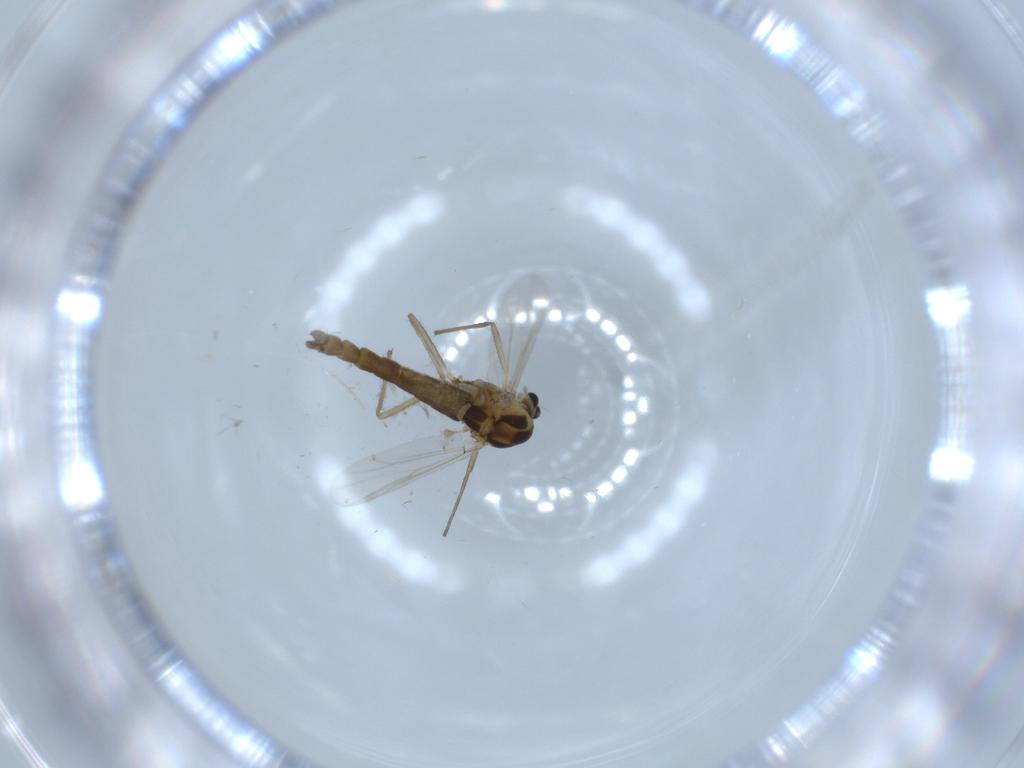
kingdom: Animalia
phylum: Arthropoda
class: Insecta
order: Diptera
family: Chironomidae
